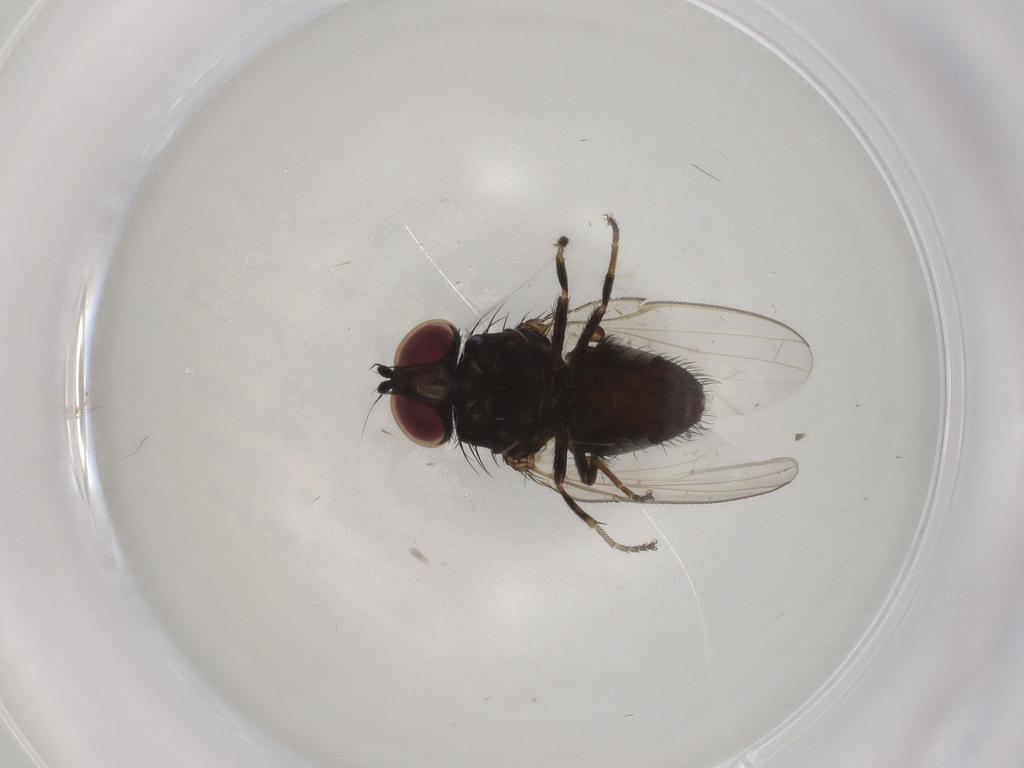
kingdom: Animalia
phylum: Arthropoda
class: Insecta
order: Diptera
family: Milichiidae
